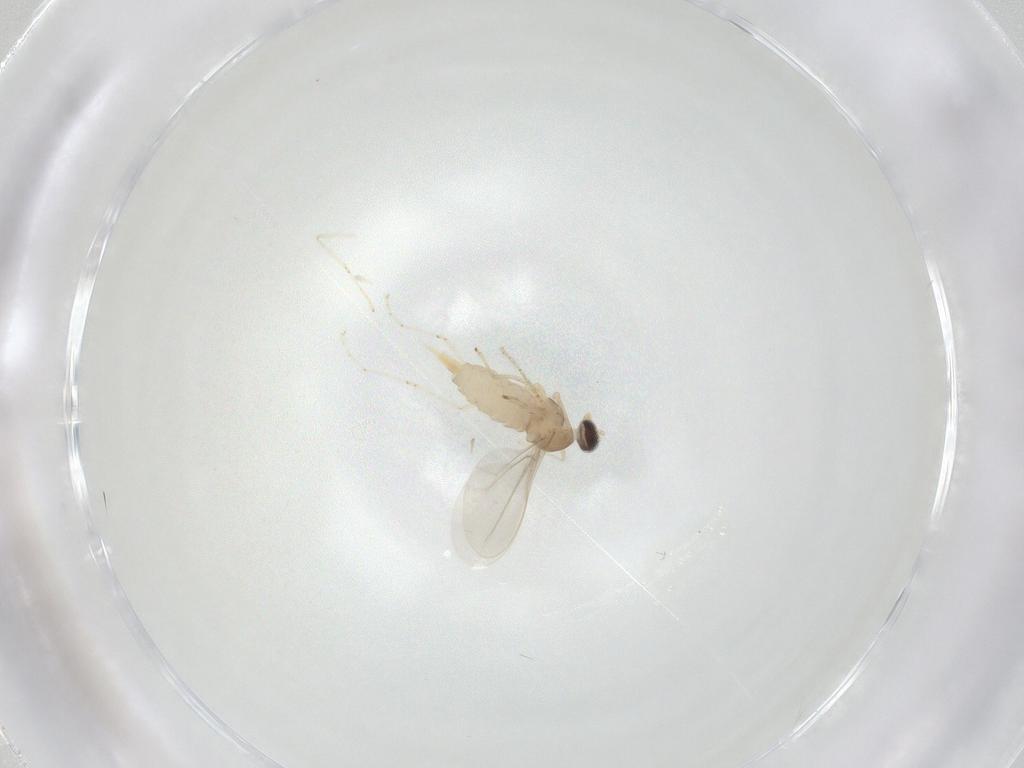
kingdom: Animalia
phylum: Arthropoda
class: Insecta
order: Diptera
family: Cecidomyiidae
